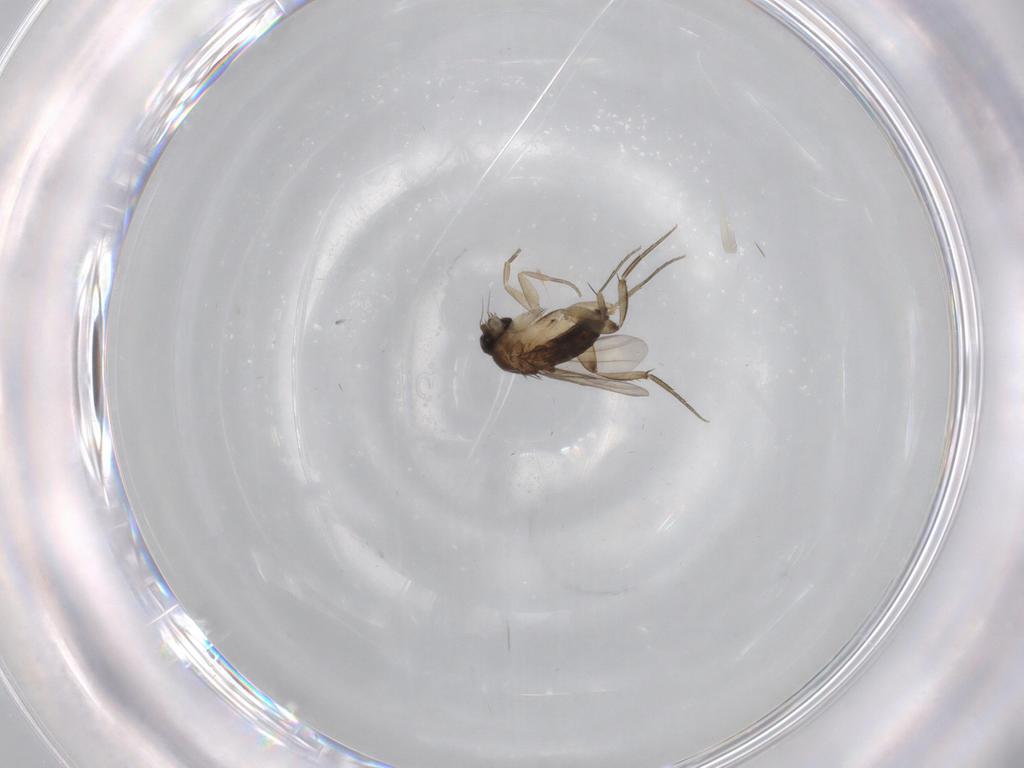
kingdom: Animalia
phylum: Arthropoda
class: Insecta
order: Diptera
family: Phoridae
